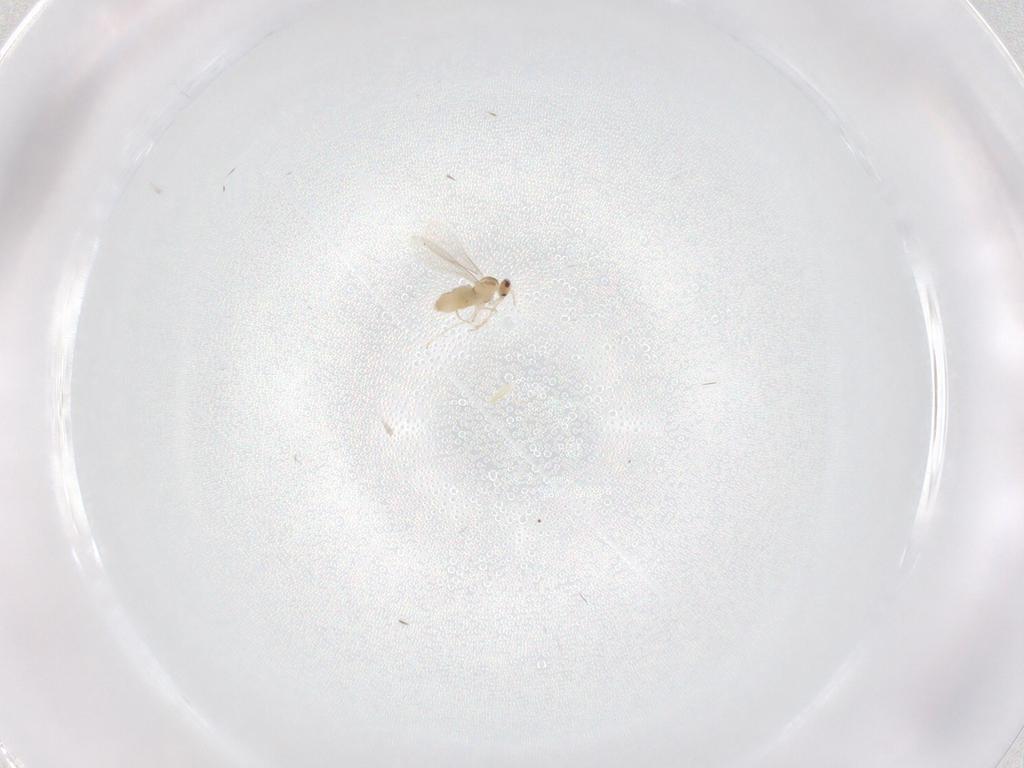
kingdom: Animalia
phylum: Arthropoda
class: Insecta
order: Diptera
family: Cecidomyiidae
